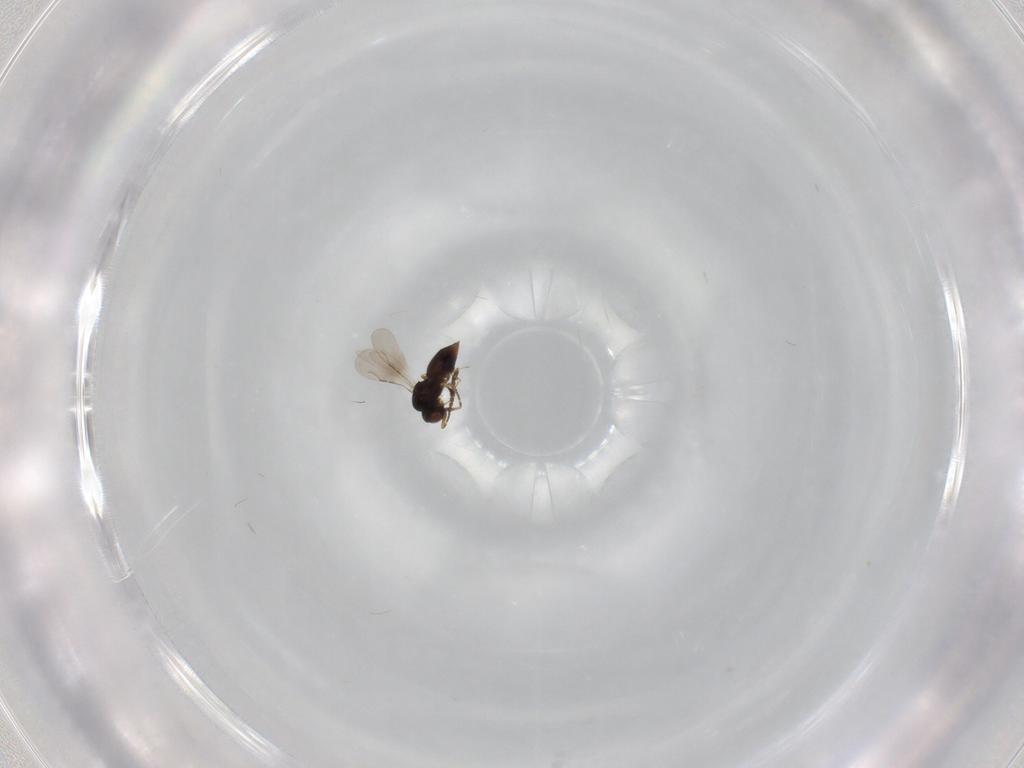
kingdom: Animalia
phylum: Arthropoda
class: Insecta
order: Hymenoptera
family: Ceraphronidae
